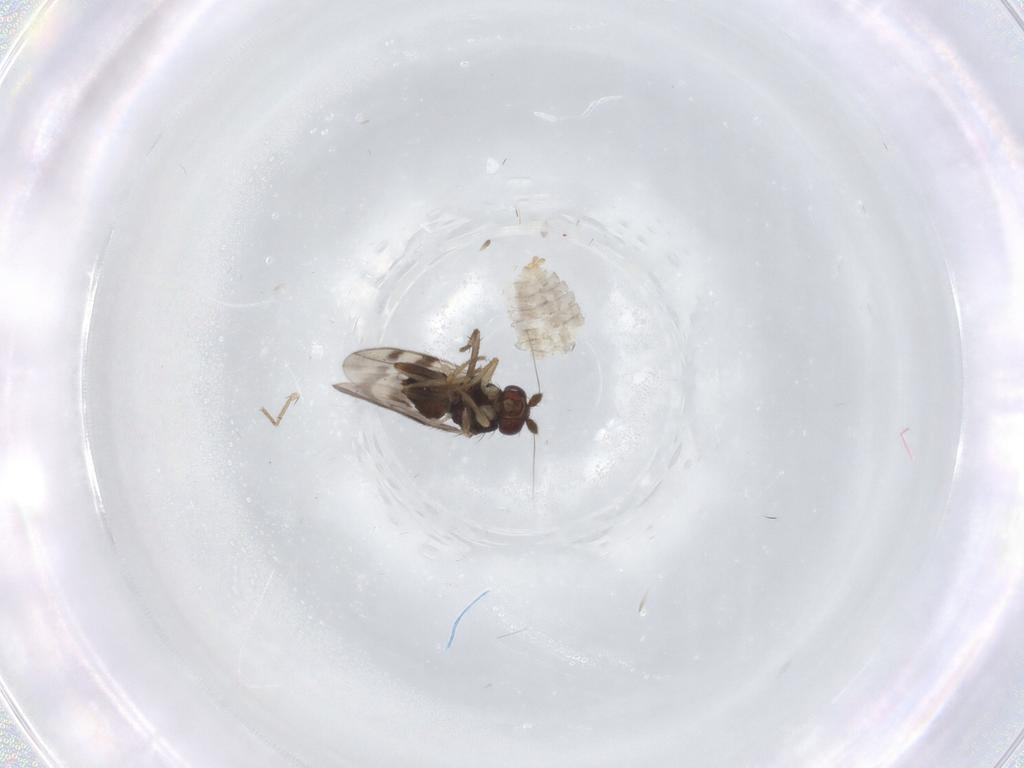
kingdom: Animalia
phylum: Arthropoda
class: Insecta
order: Diptera
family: Sphaeroceridae
